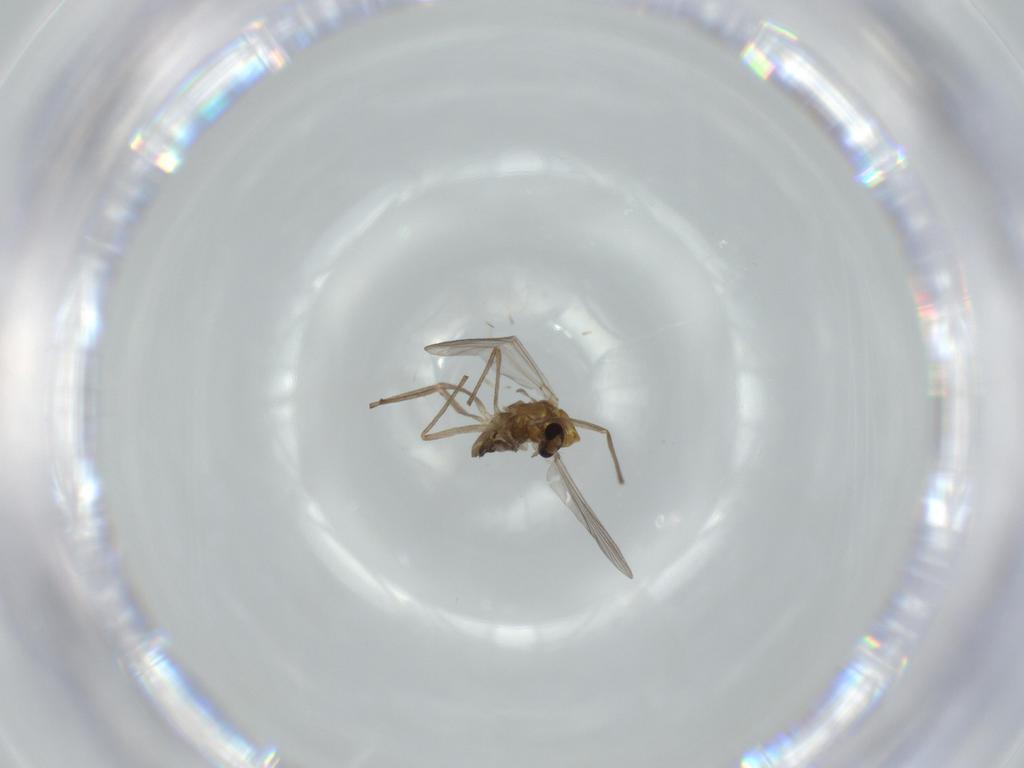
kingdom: Animalia
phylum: Arthropoda
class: Insecta
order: Diptera
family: Chironomidae
